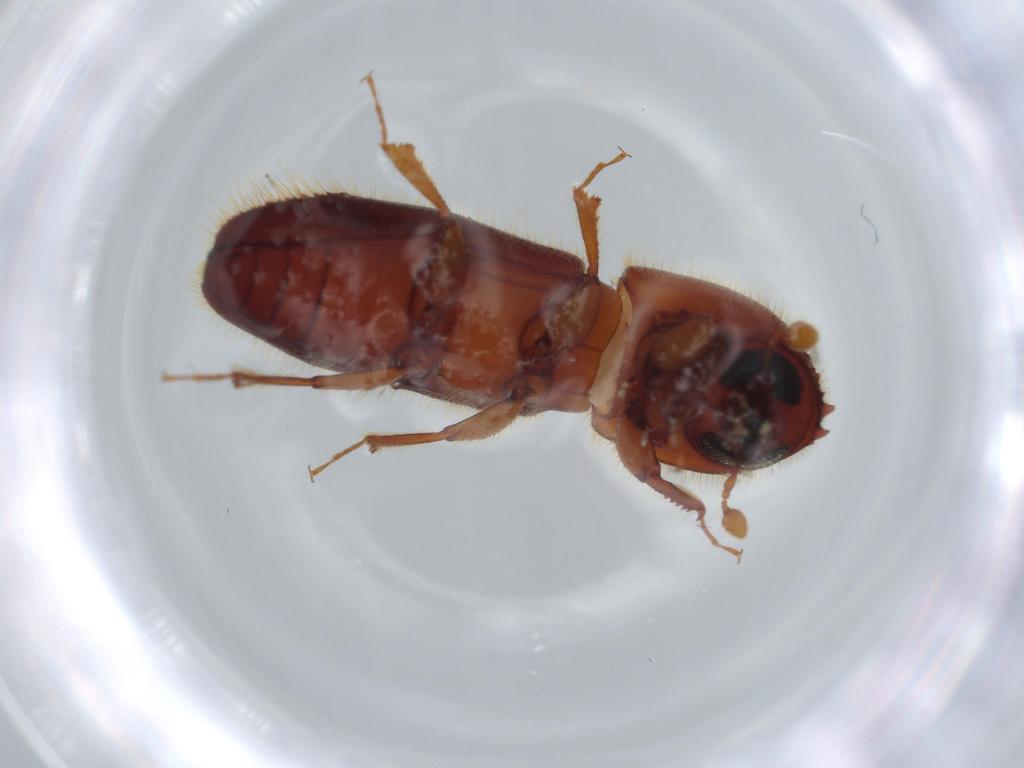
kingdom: Animalia
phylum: Arthropoda
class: Insecta
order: Coleoptera
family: Curculionidae
